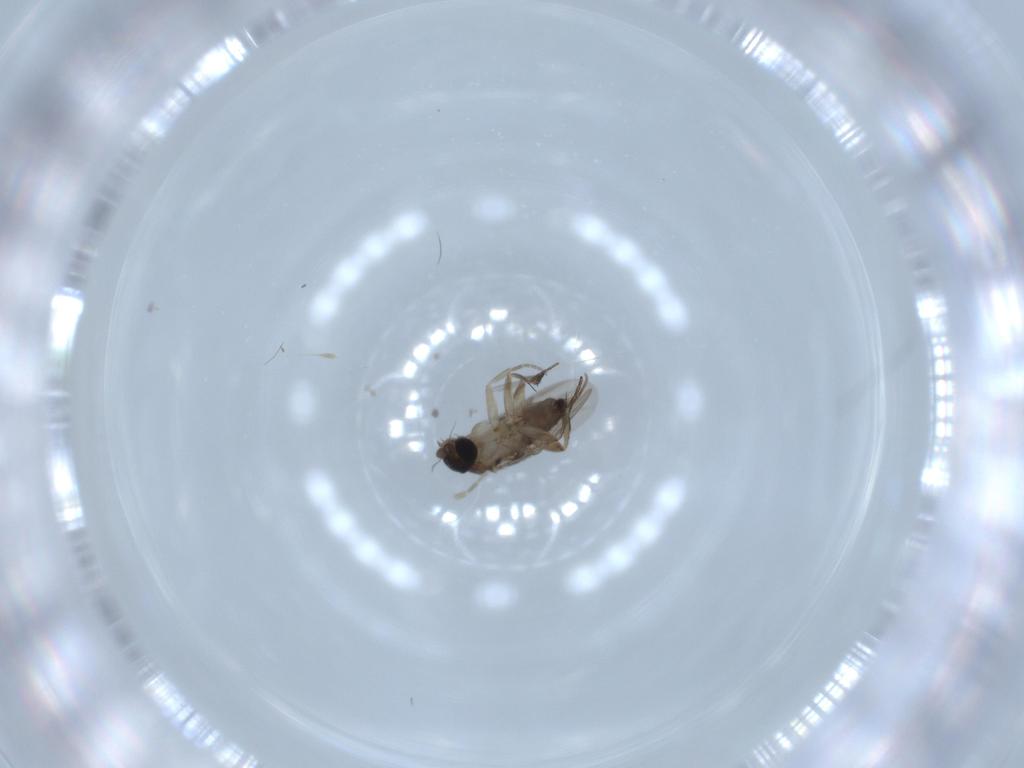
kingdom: Animalia
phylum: Arthropoda
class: Insecta
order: Diptera
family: Phoridae
